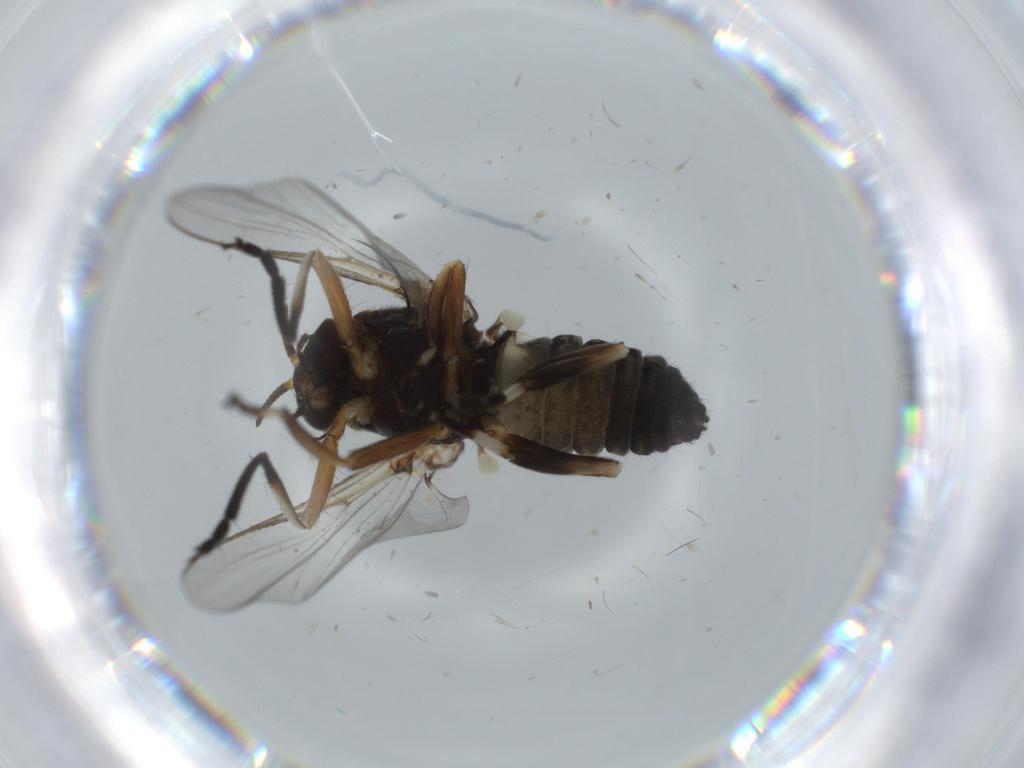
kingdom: Animalia
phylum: Arthropoda
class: Insecta
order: Diptera
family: Phoridae
